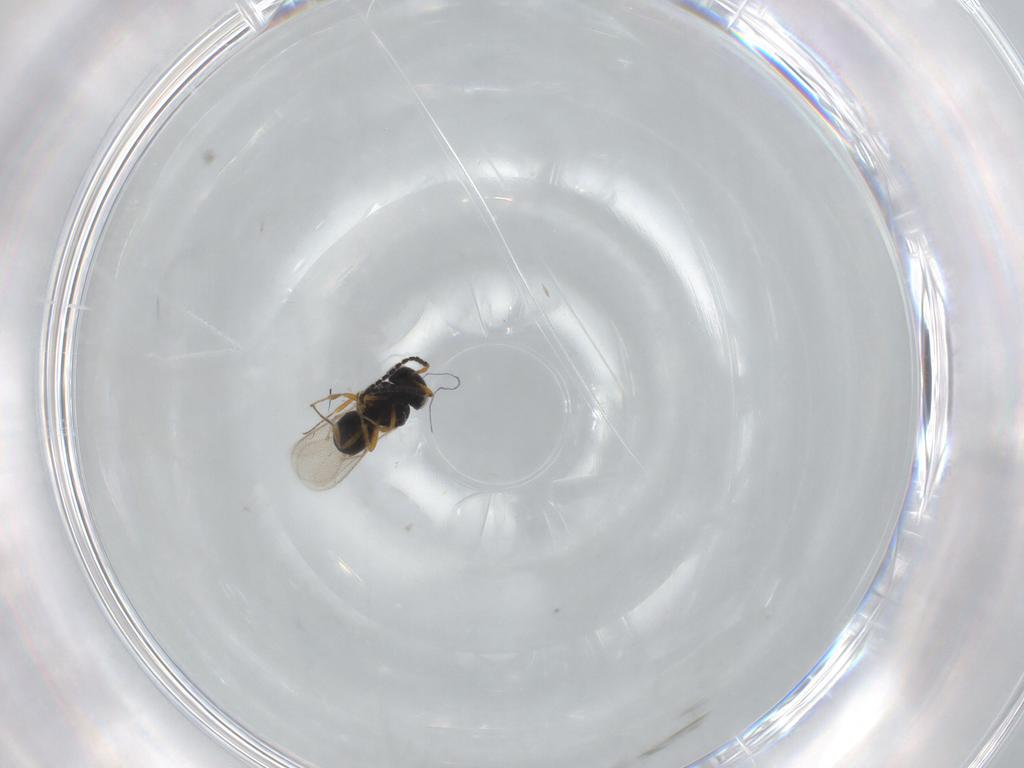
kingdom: Animalia
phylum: Arthropoda
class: Insecta
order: Hymenoptera
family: Scelionidae
